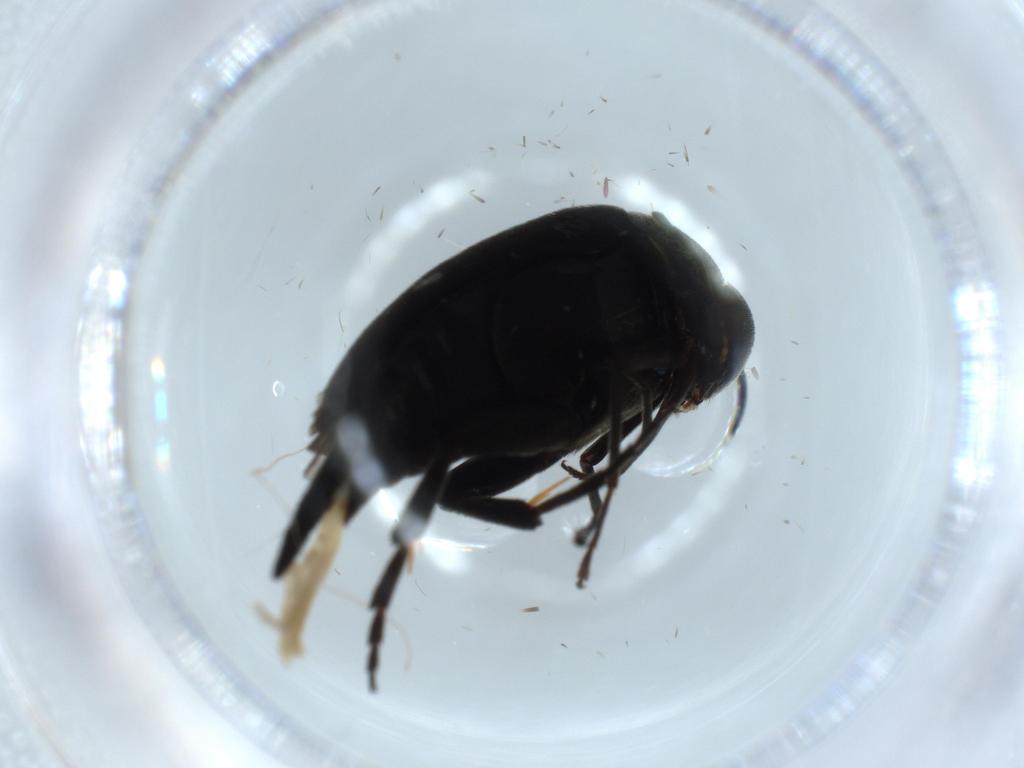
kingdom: Animalia
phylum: Arthropoda
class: Insecta
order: Coleoptera
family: Mordellidae
